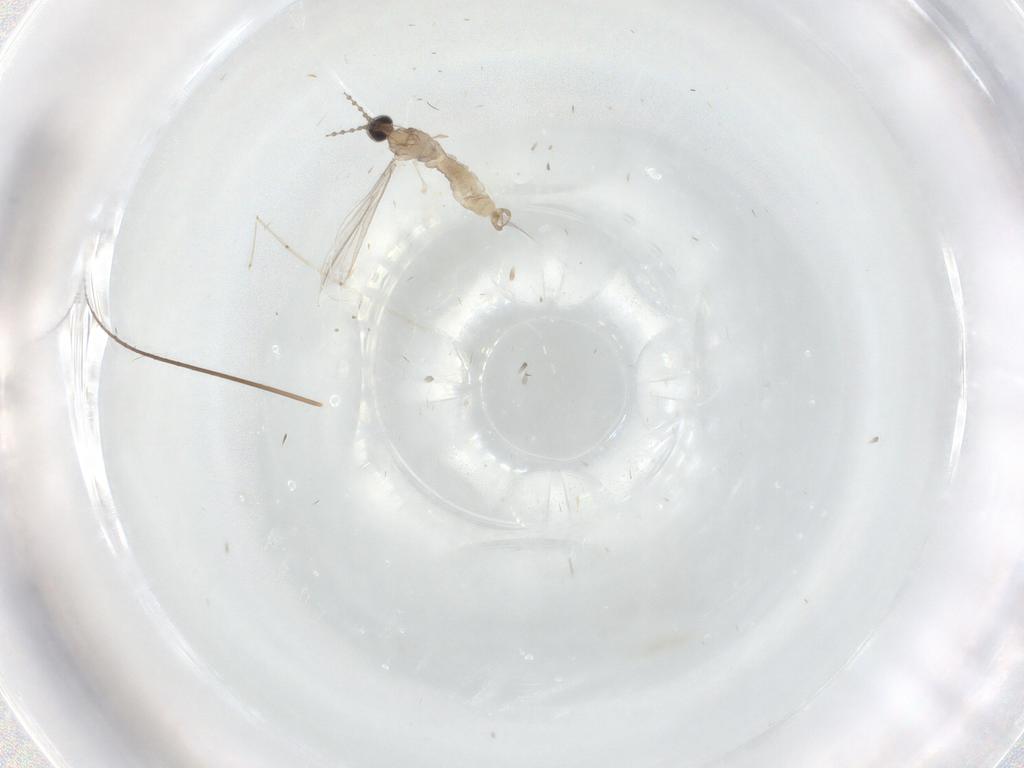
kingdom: Animalia
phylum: Arthropoda
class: Insecta
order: Diptera
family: Cecidomyiidae
